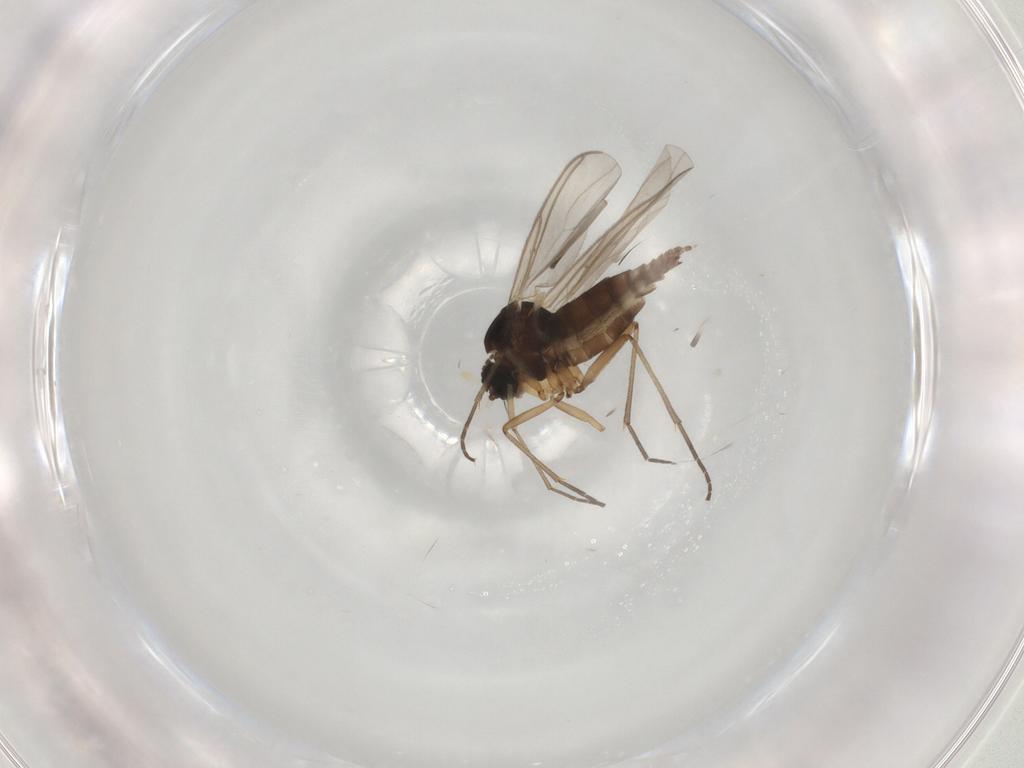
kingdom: Animalia
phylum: Arthropoda
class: Insecta
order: Diptera
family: Sciaridae
